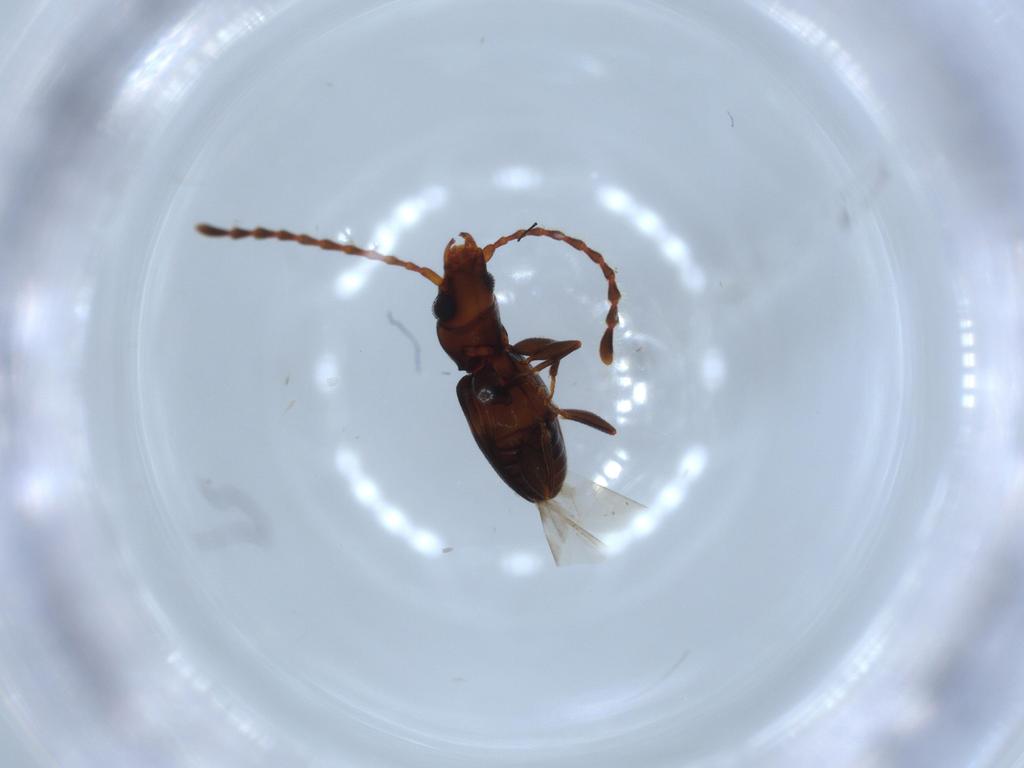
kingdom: Animalia
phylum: Arthropoda
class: Insecta
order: Coleoptera
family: Laemophloeidae
